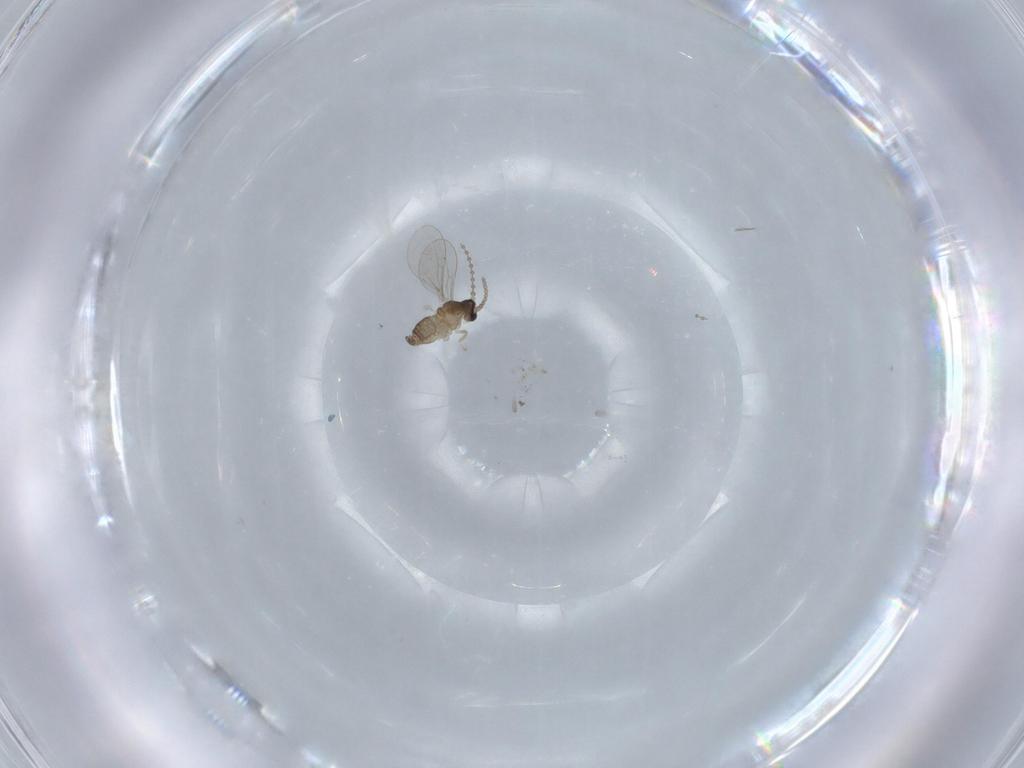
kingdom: Animalia
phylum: Arthropoda
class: Insecta
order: Diptera
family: Cecidomyiidae
